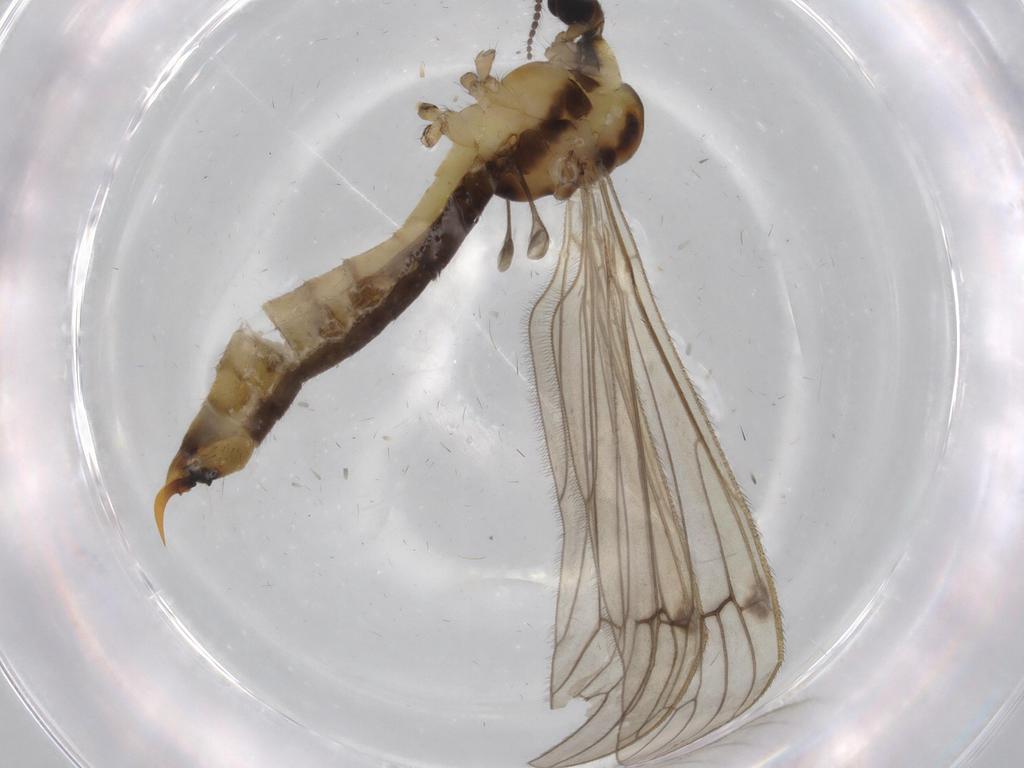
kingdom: Animalia
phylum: Arthropoda
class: Insecta
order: Diptera
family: Limoniidae
